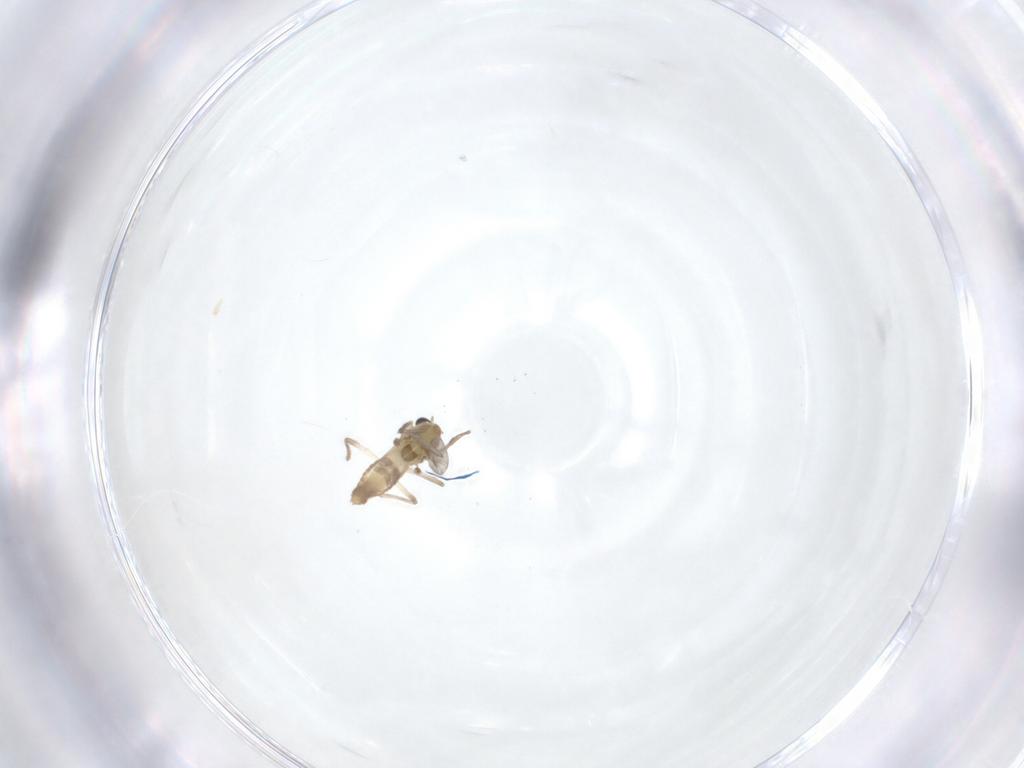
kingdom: Animalia
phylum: Arthropoda
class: Insecta
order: Diptera
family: Chironomidae
